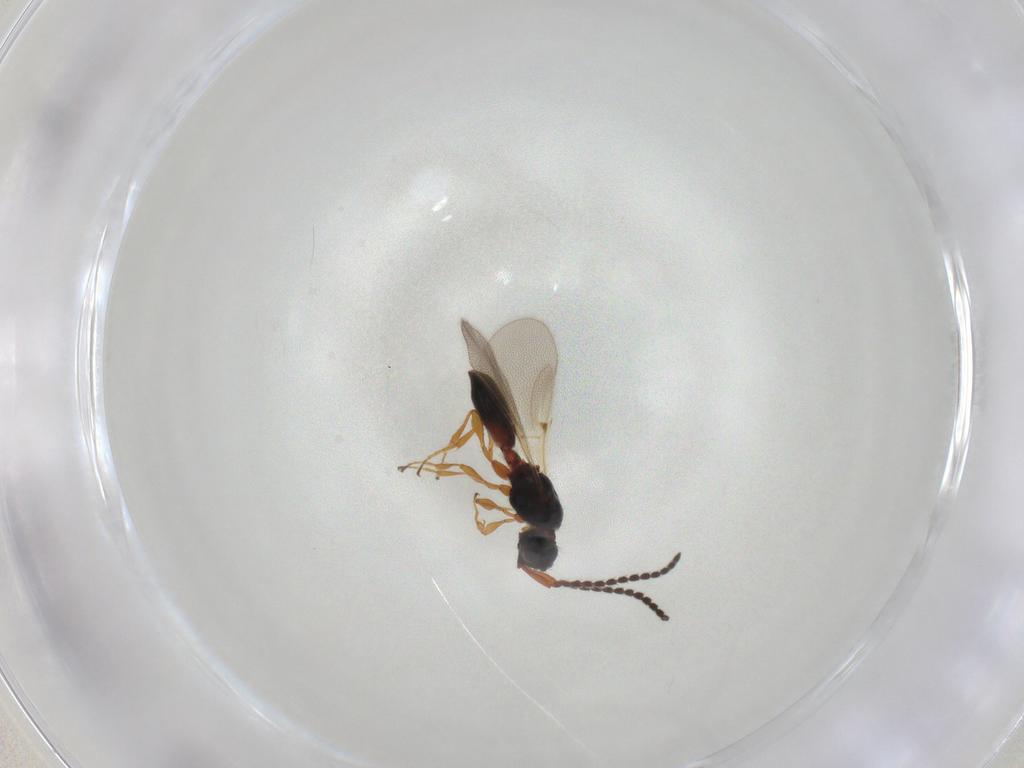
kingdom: Animalia
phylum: Arthropoda
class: Insecta
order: Hymenoptera
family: Diapriidae
